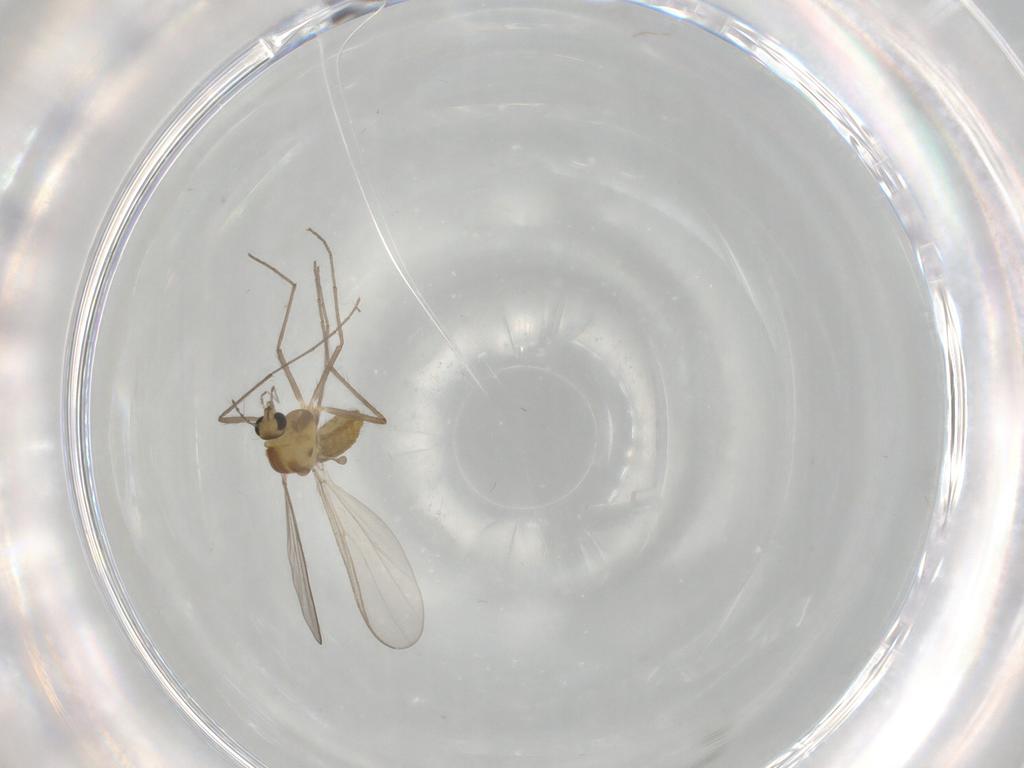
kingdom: Animalia
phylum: Arthropoda
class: Insecta
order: Diptera
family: Chironomidae
